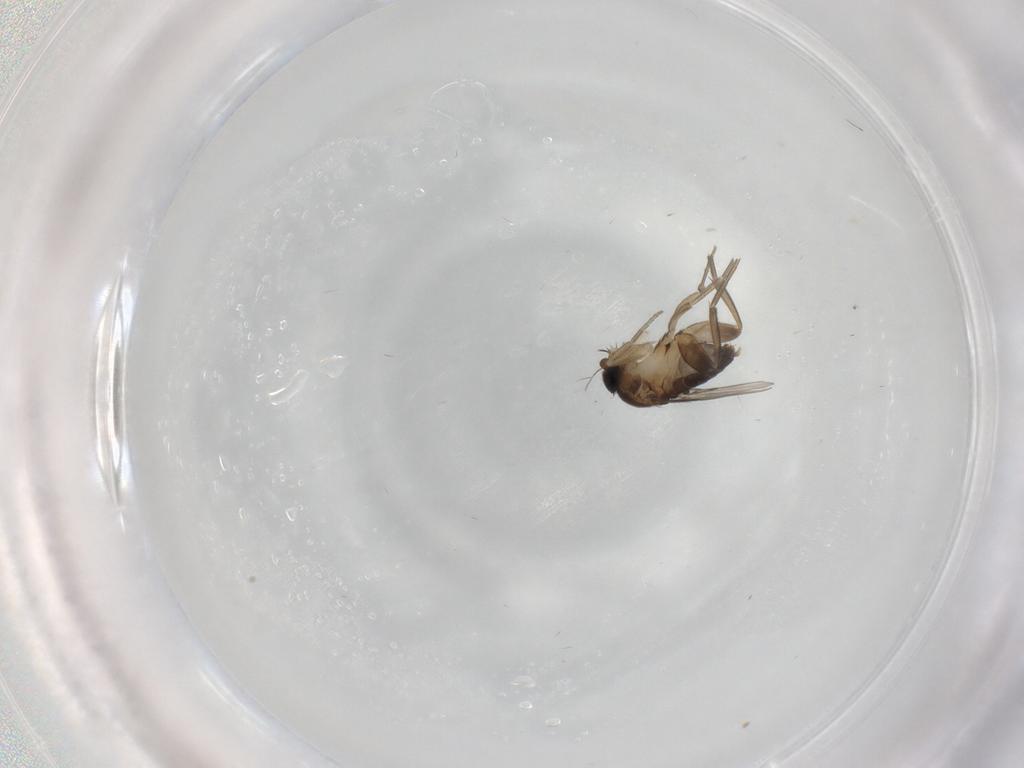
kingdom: Animalia
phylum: Arthropoda
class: Insecta
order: Diptera
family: Phoridae
